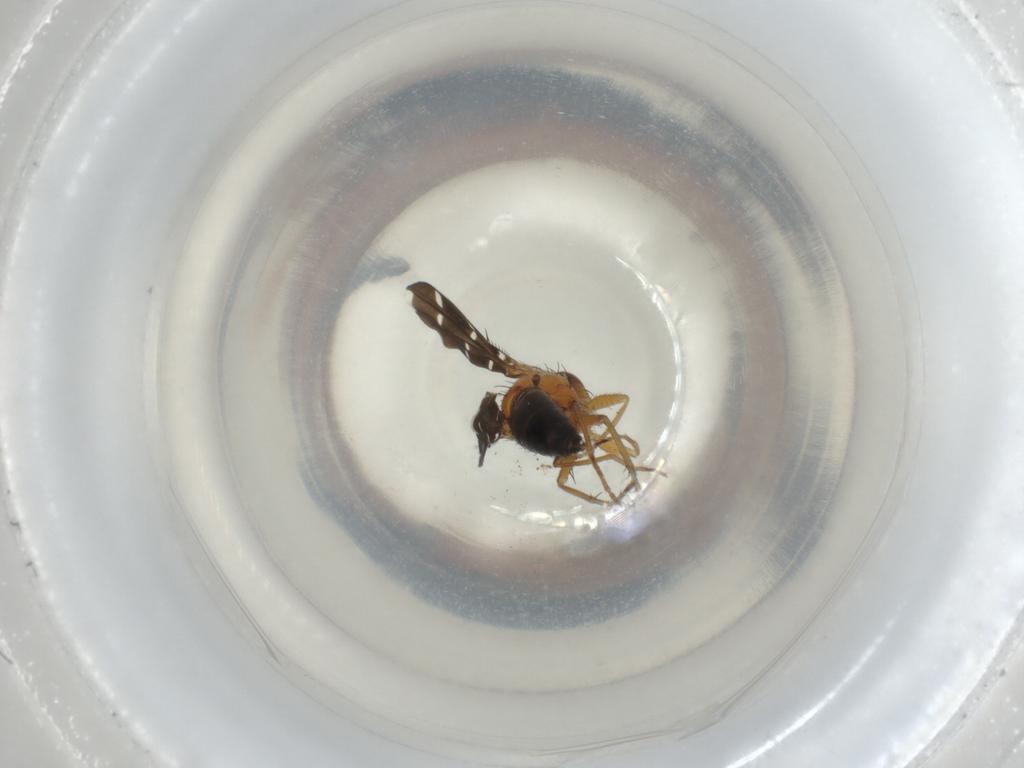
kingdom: Animalia
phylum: Arthropoda
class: Insecta
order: Diptera
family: Ephydridae
